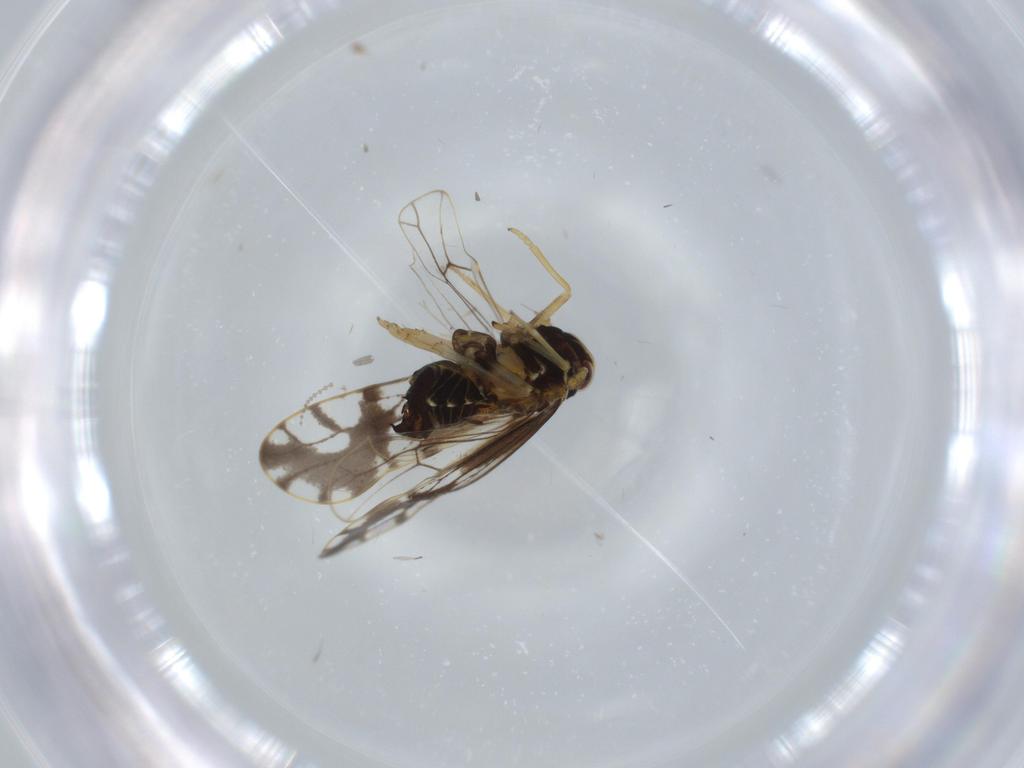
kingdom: Animalia
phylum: Arthropoda
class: Insecta
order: Hemiptera
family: Delphacidae
